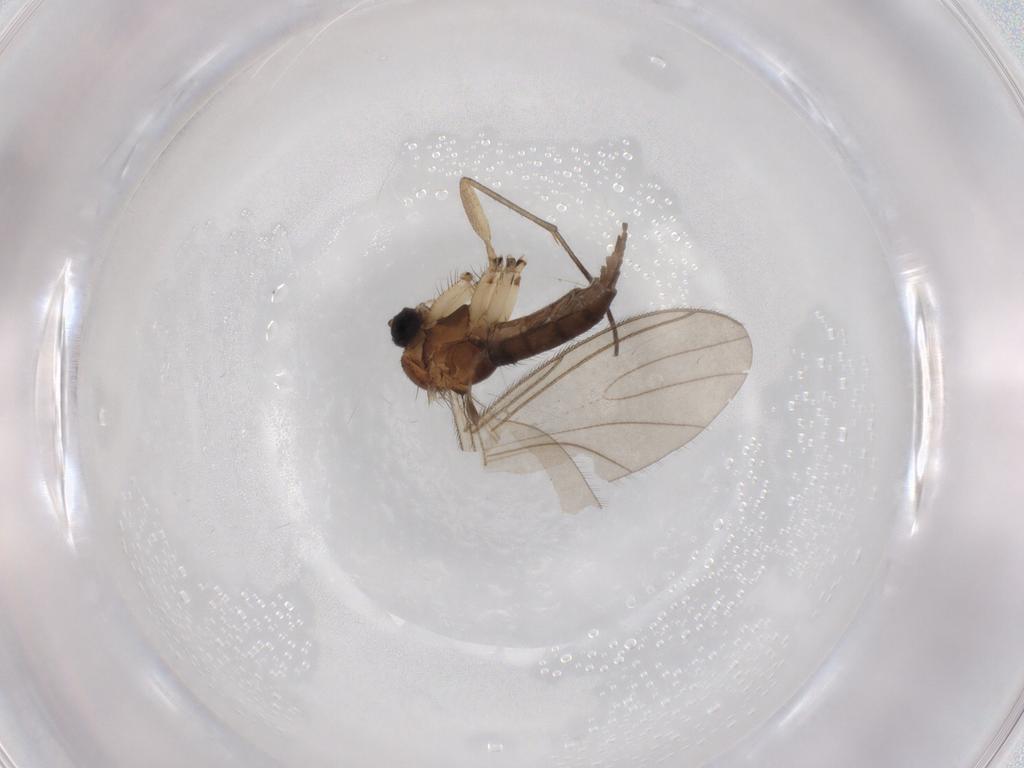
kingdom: Animalia
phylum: Arthropoda
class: Insecta
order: Diptera
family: Sciaridae
